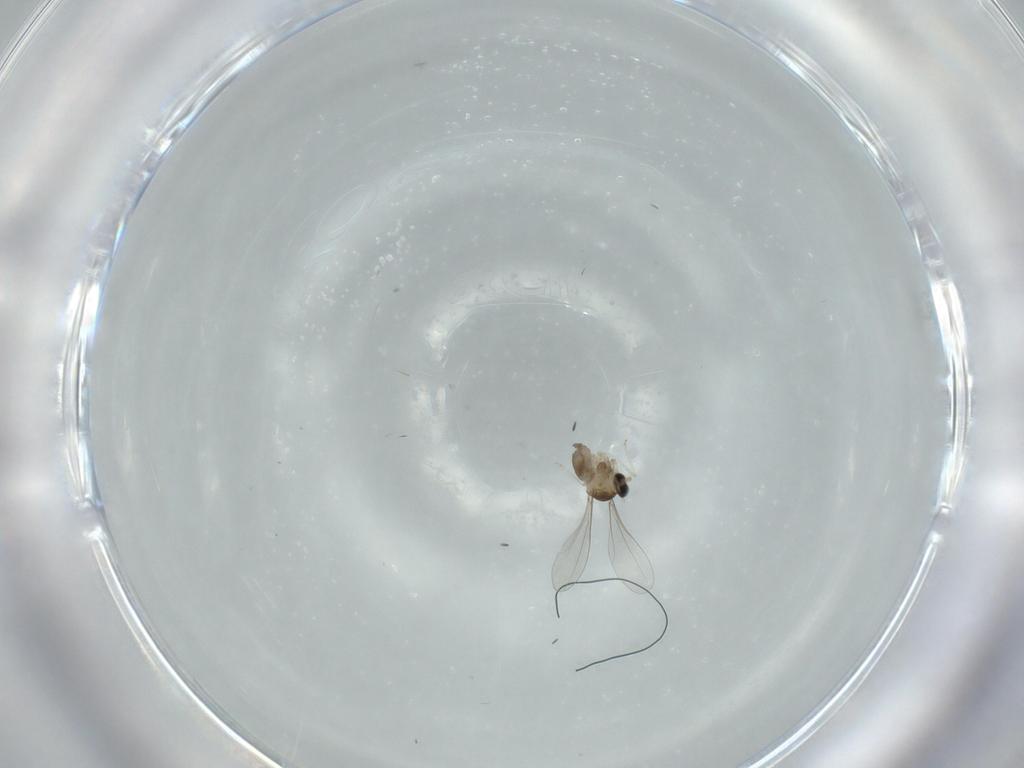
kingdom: Animalia
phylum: Arthropoda
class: Insecta
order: Diptera
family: Cecidomyiidae
